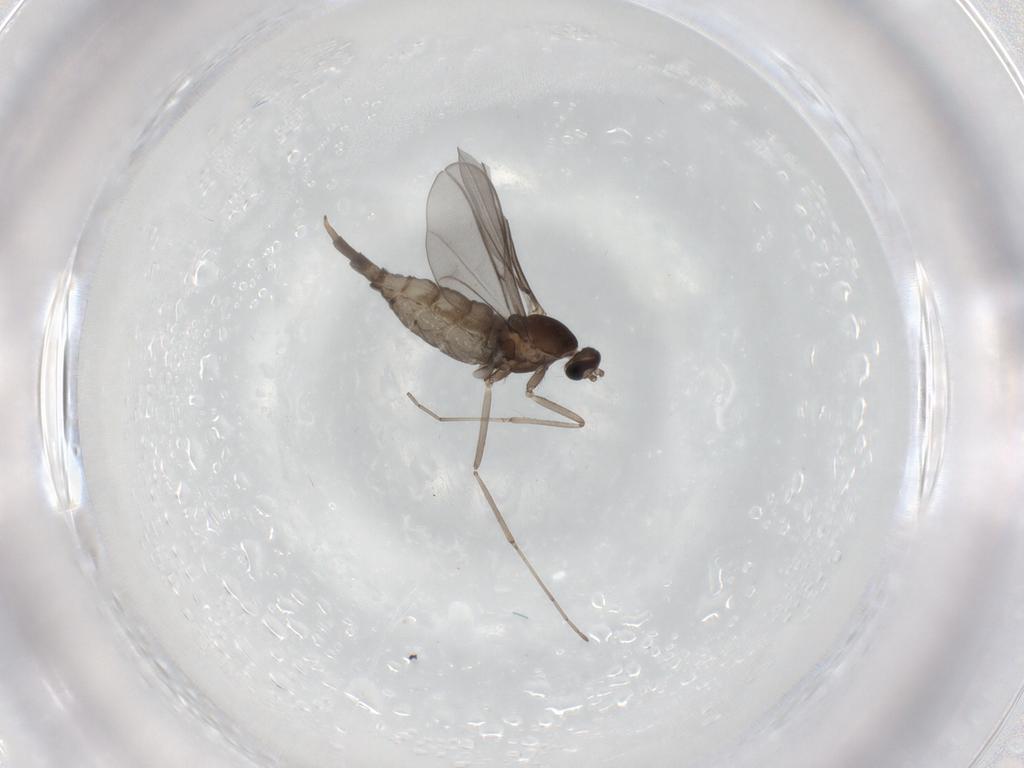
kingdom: Animalia
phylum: Arthropoda
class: Insecta
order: Diptera
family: Cecidomyiidae
